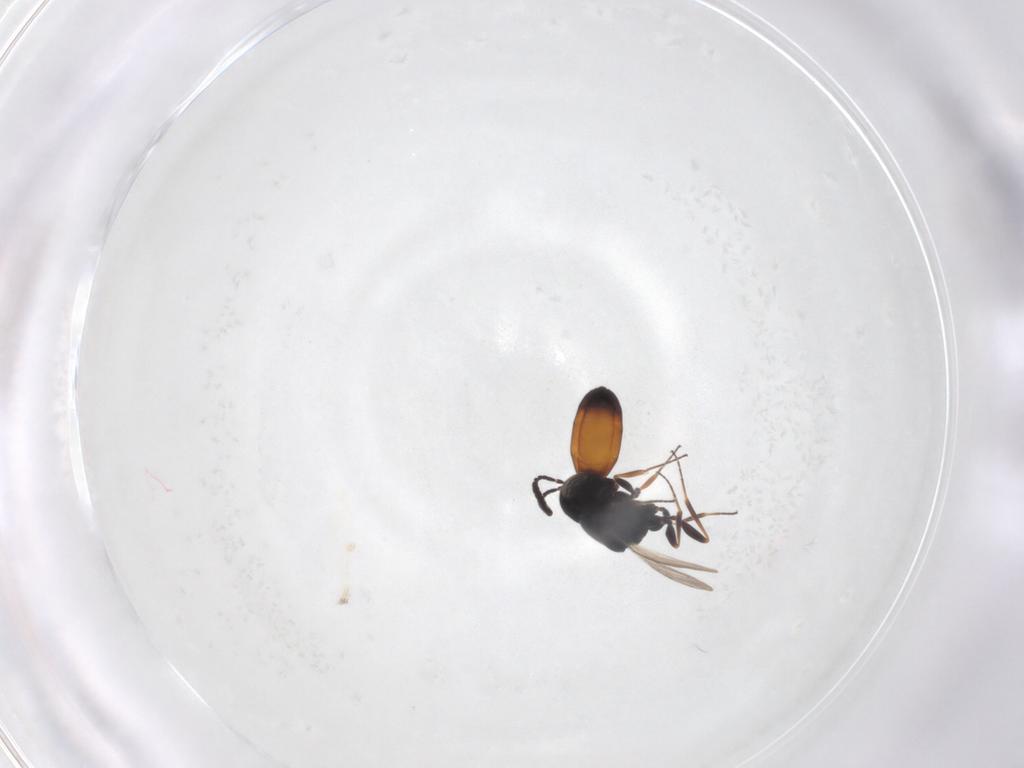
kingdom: Animalia
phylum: Arthropoda
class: Insecta
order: Hymenoptera
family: Scelionidae
